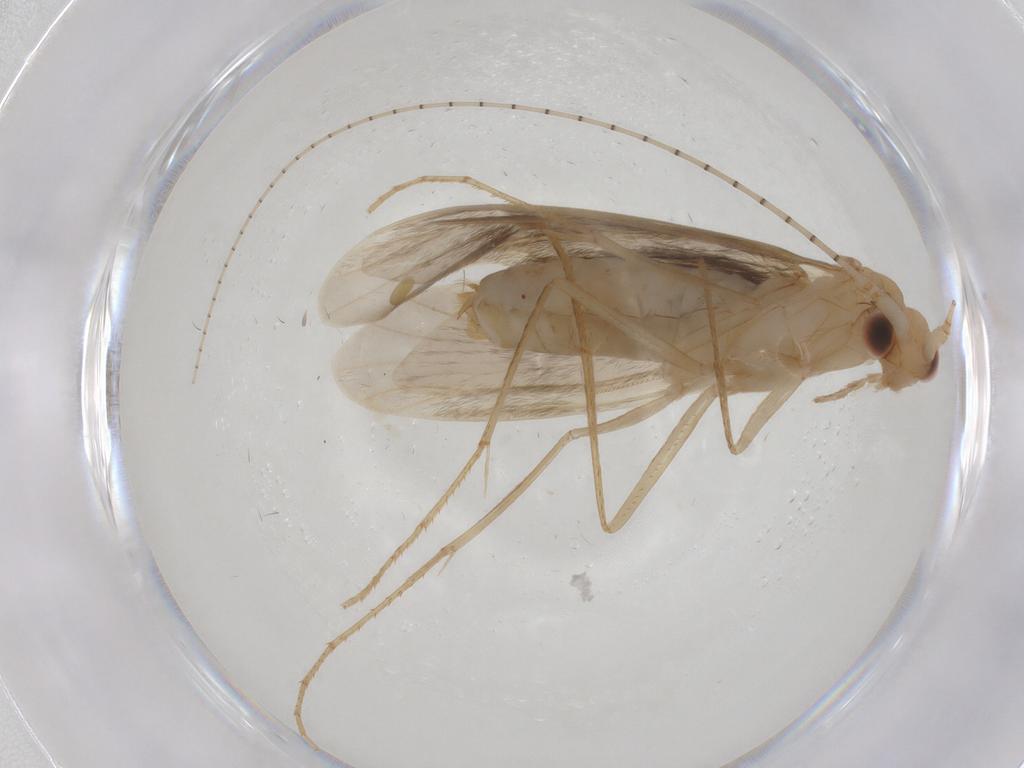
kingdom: Animalia
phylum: Arthropoda
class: Insecta
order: Trichoptera
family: Leptoceridae
